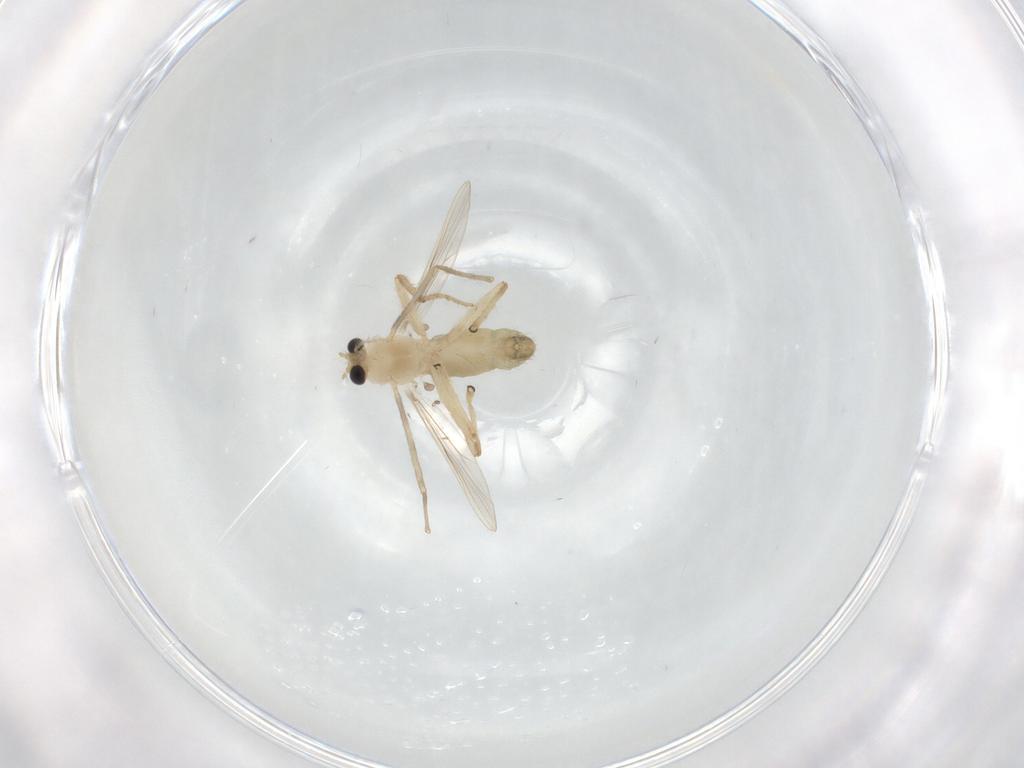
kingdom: Animalia
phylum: Arthropoda
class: Insecta
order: Diptera
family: Chironomidae
